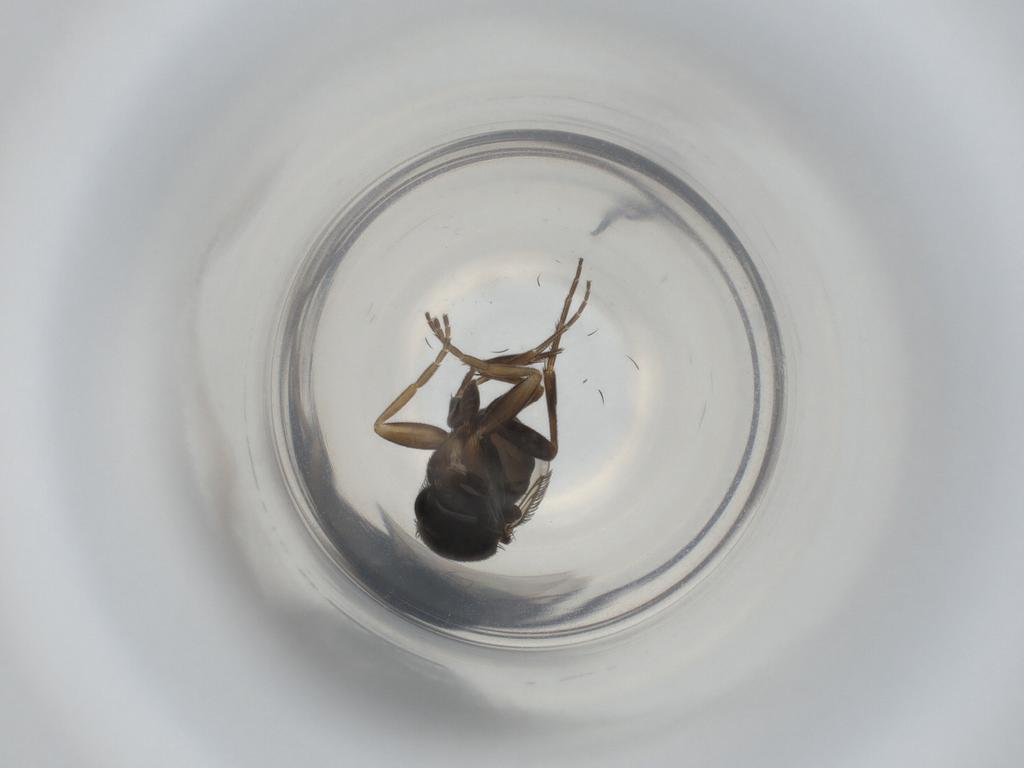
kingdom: Animalia
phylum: Arthropoda
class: Insecta
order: Diptera
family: Phoridae
